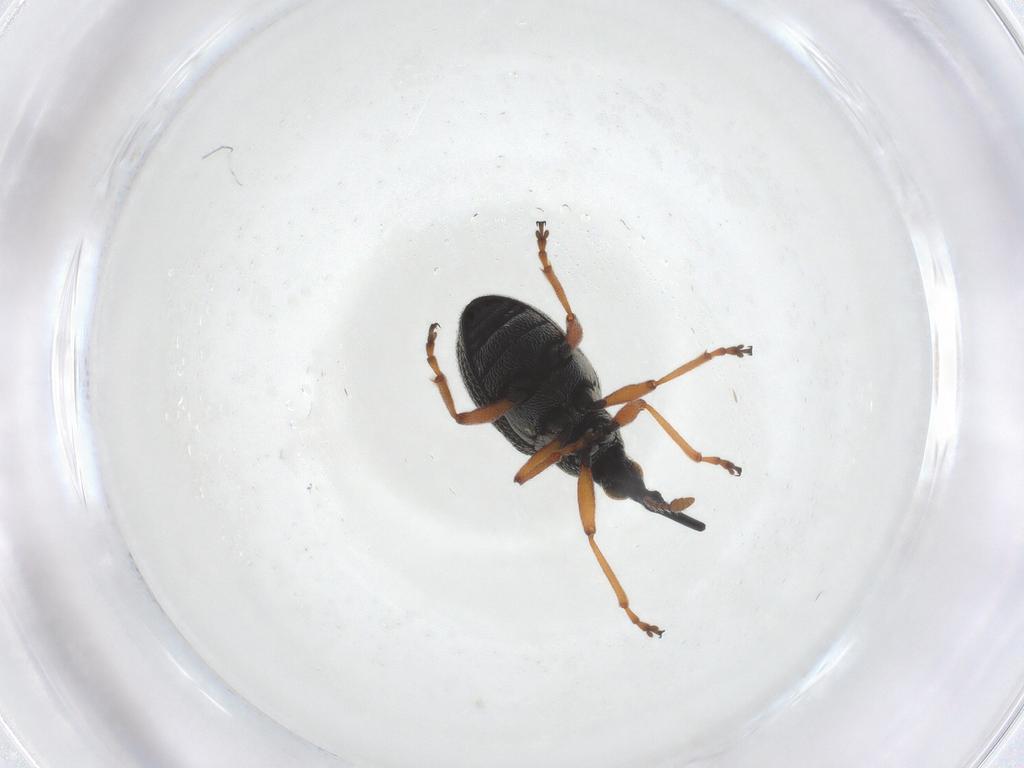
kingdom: Animalia
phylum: Arthropoda
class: Insecta
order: Coleoptera
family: Brentidae
